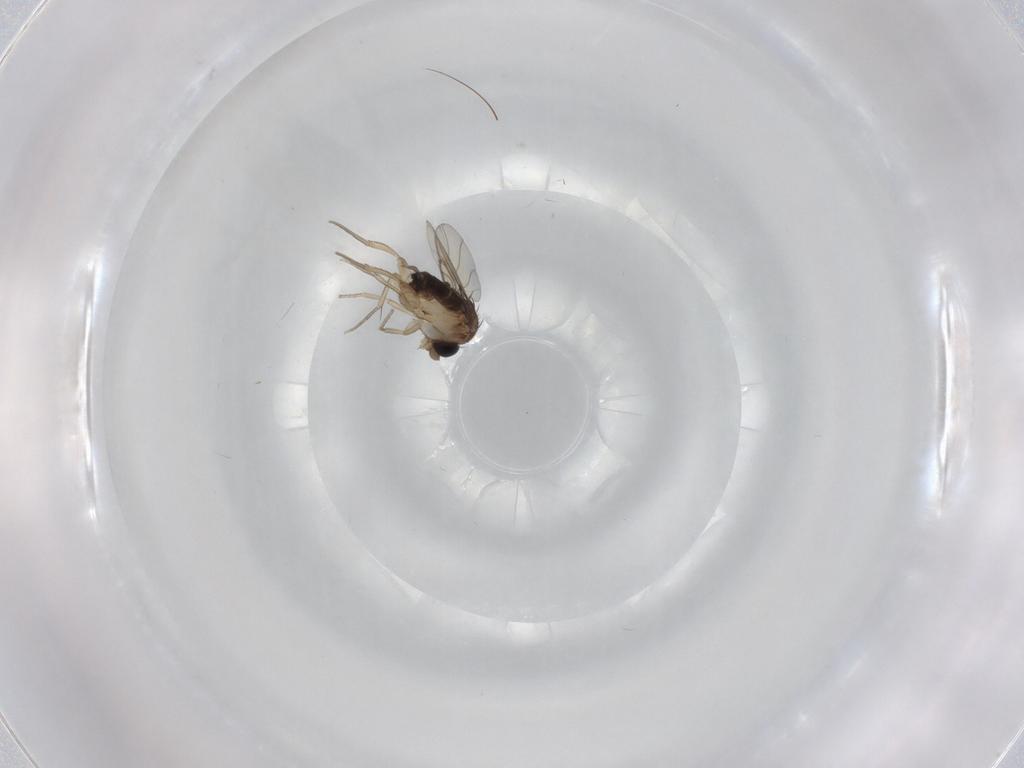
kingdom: Animalia
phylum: Arthropoda
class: Insecta
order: Diptera
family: Phoridae
